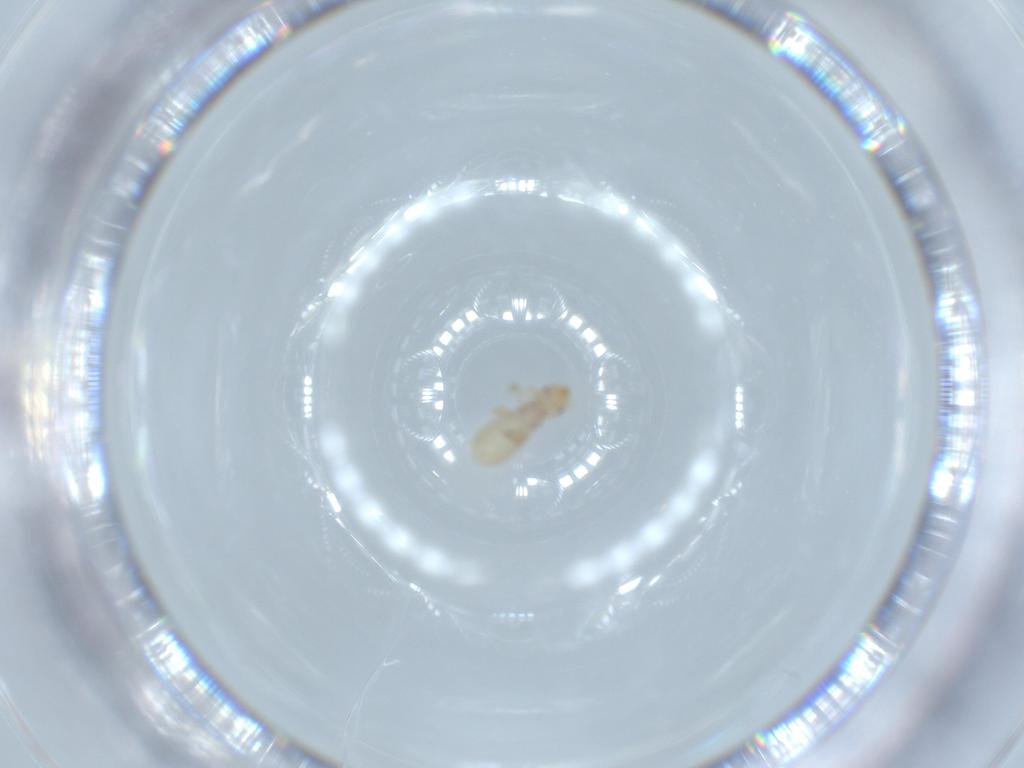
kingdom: Animalia
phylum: Arthropoda
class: Insecta
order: Psocodea
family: Liposcelididae
